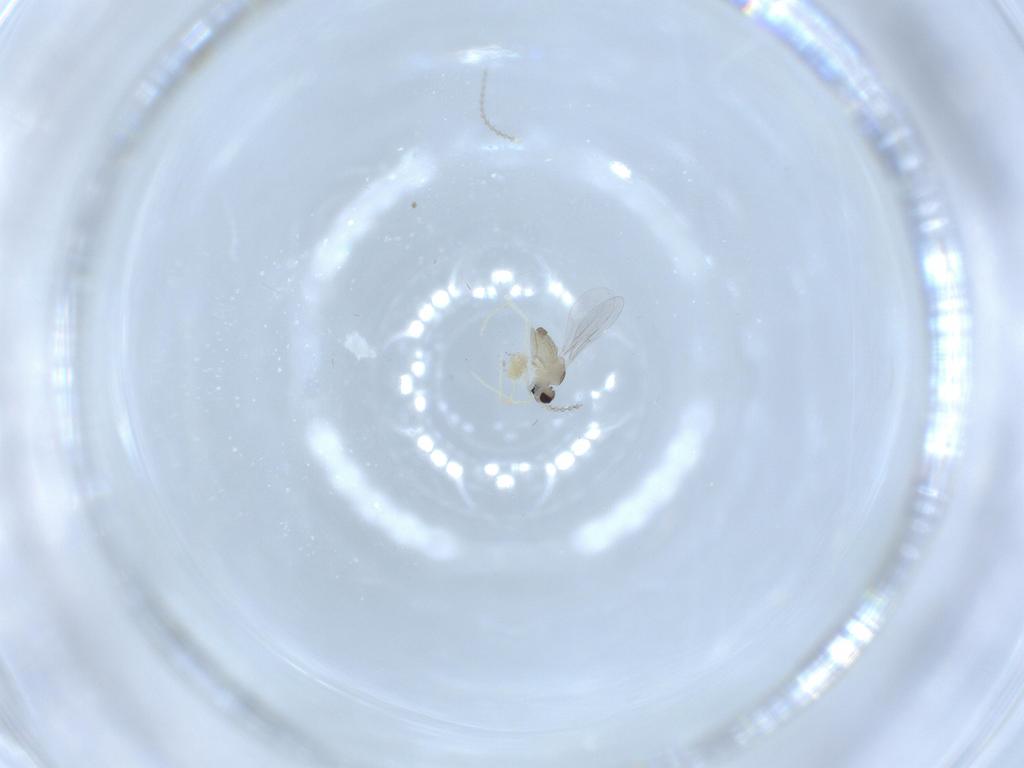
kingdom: Animalia
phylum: Arthropoda
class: Insecta
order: Diptera
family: Cecidomyiidae
